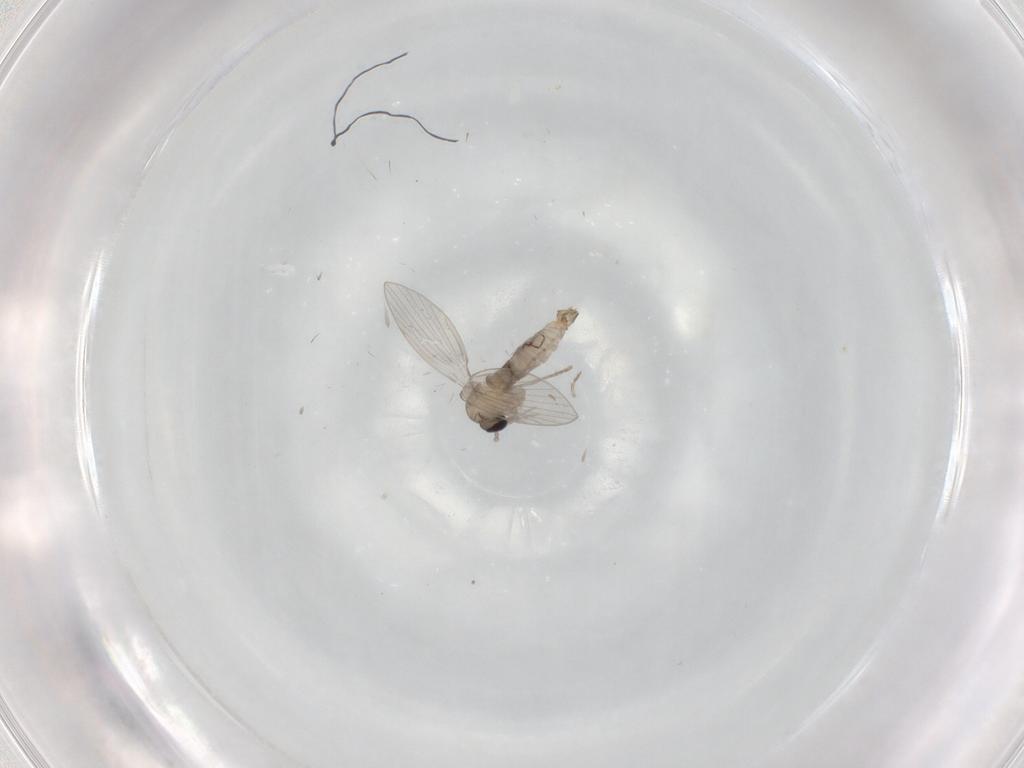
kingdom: Animalia
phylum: Arthropoda
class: Insecta
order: Diptera
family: Psychodidae
